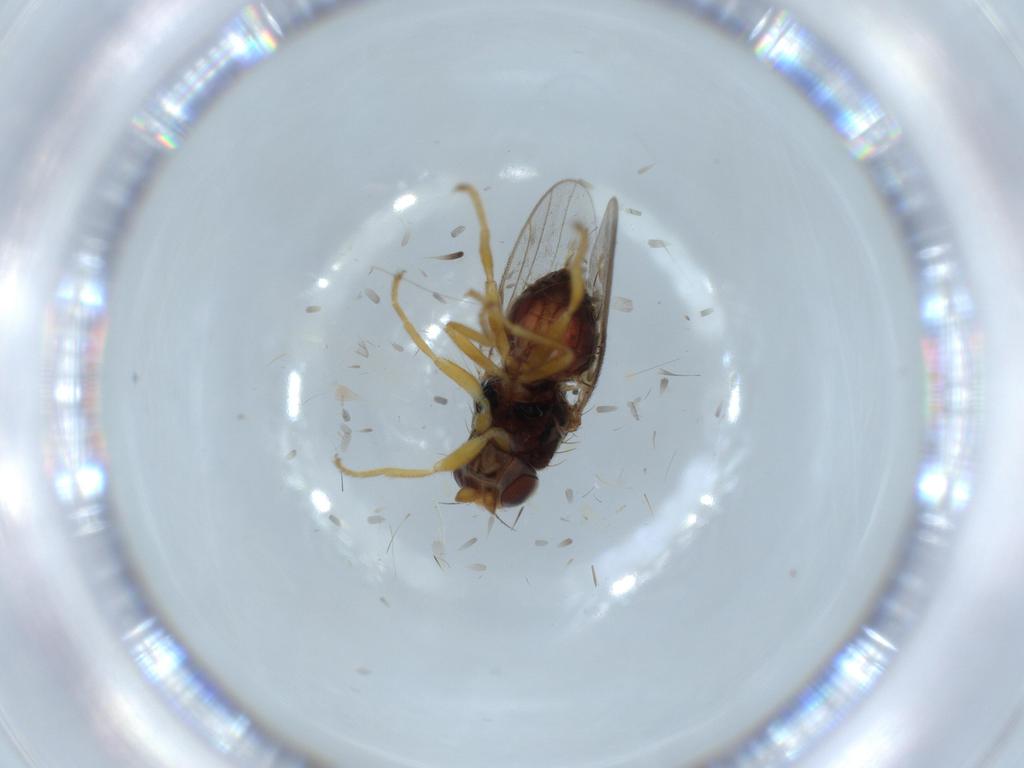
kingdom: Animalia
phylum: Arthropoda
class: Insecta
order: Diptera
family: Chloropidae
